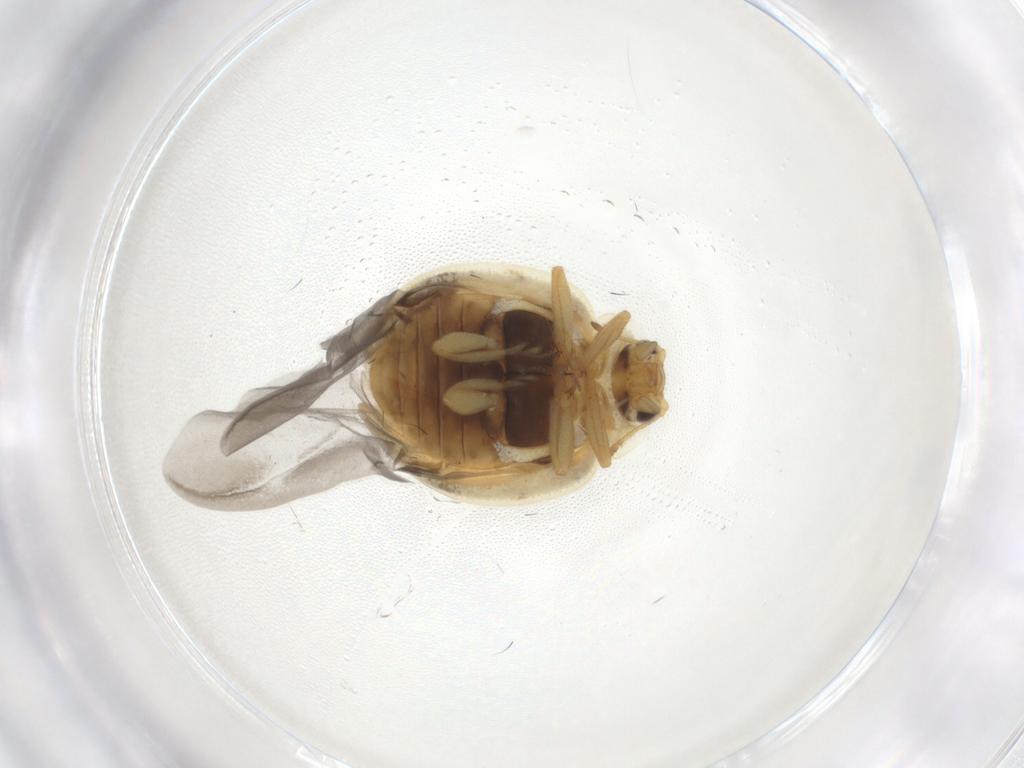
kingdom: Animalia
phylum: Arthropoda
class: Insecta
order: Coleoptera
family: Coccinellidae
